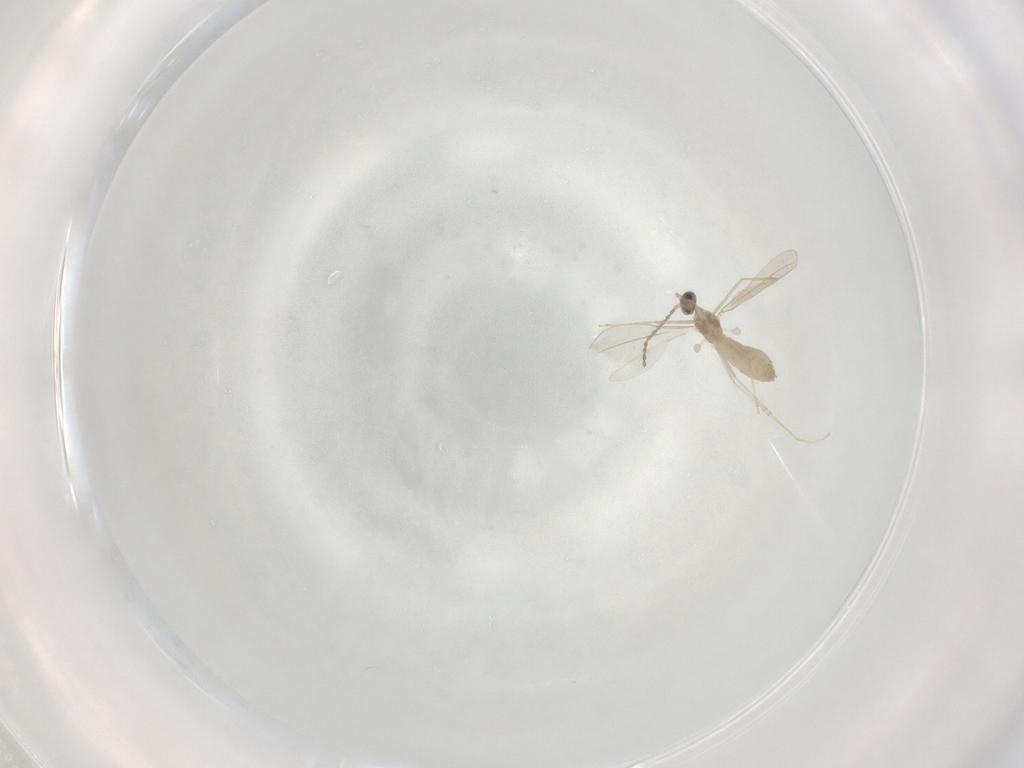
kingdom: Animalia
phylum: Arthropoda
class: Insecta
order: Diptera
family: Cecidomyiidae
